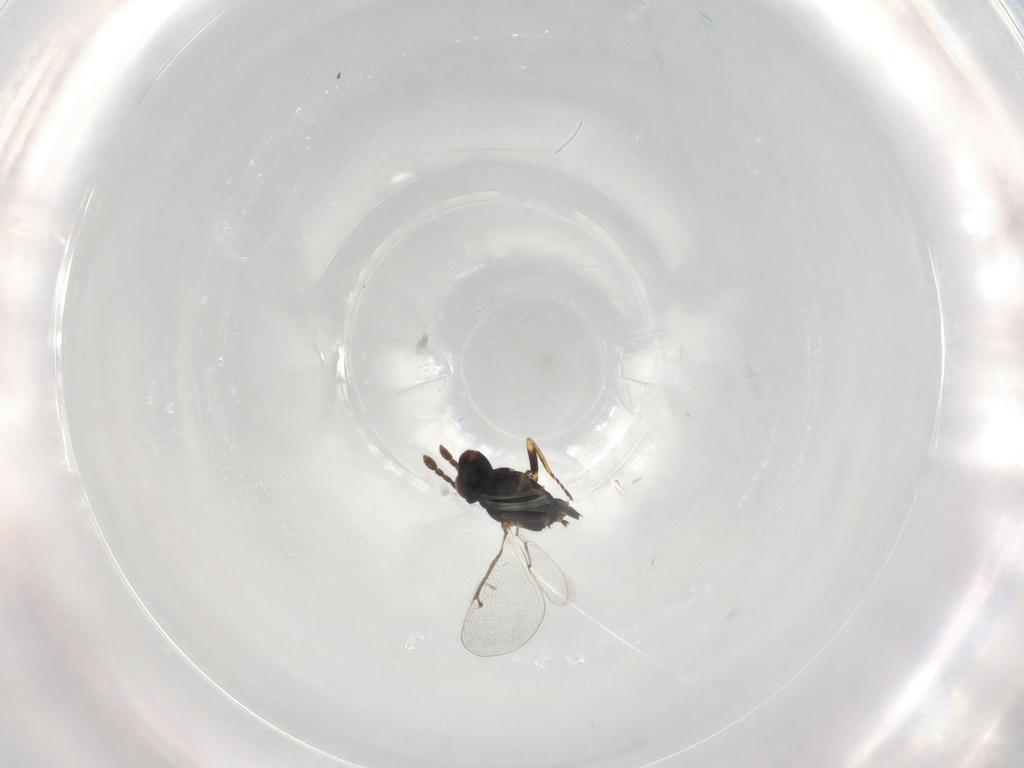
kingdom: Animalia
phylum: Arthropoda
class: Insecta
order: Hymenoptera
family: Braconidae
